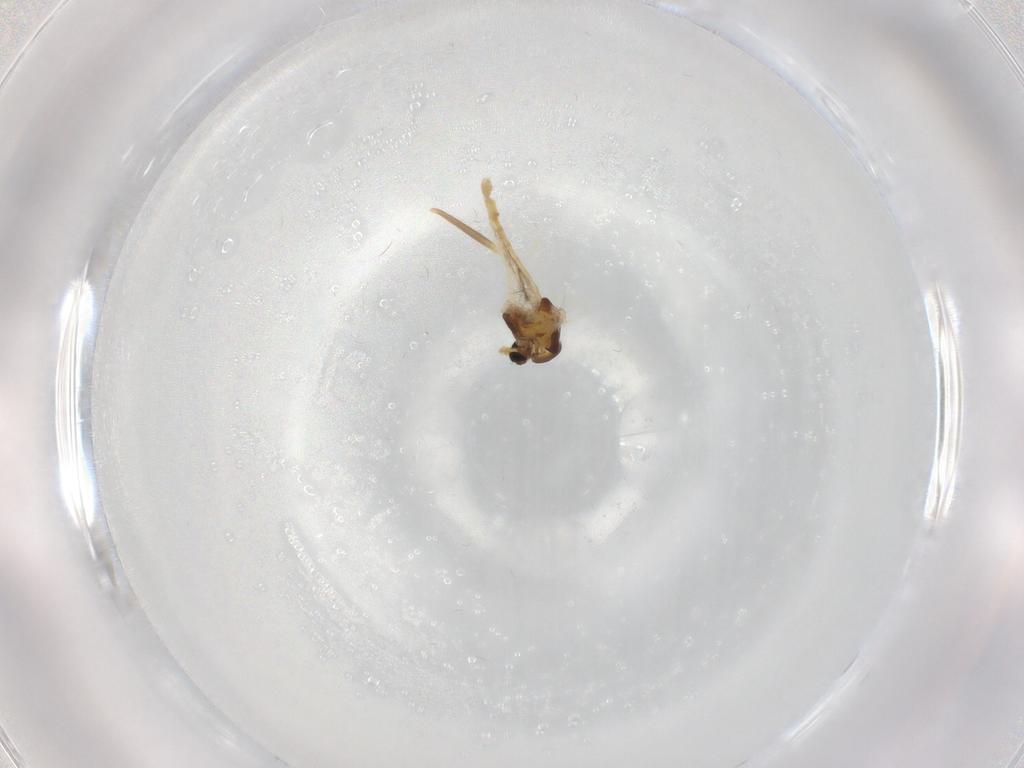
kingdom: Animalia
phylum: Arthropoda
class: Insecta
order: Diptera
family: Chironomidae
